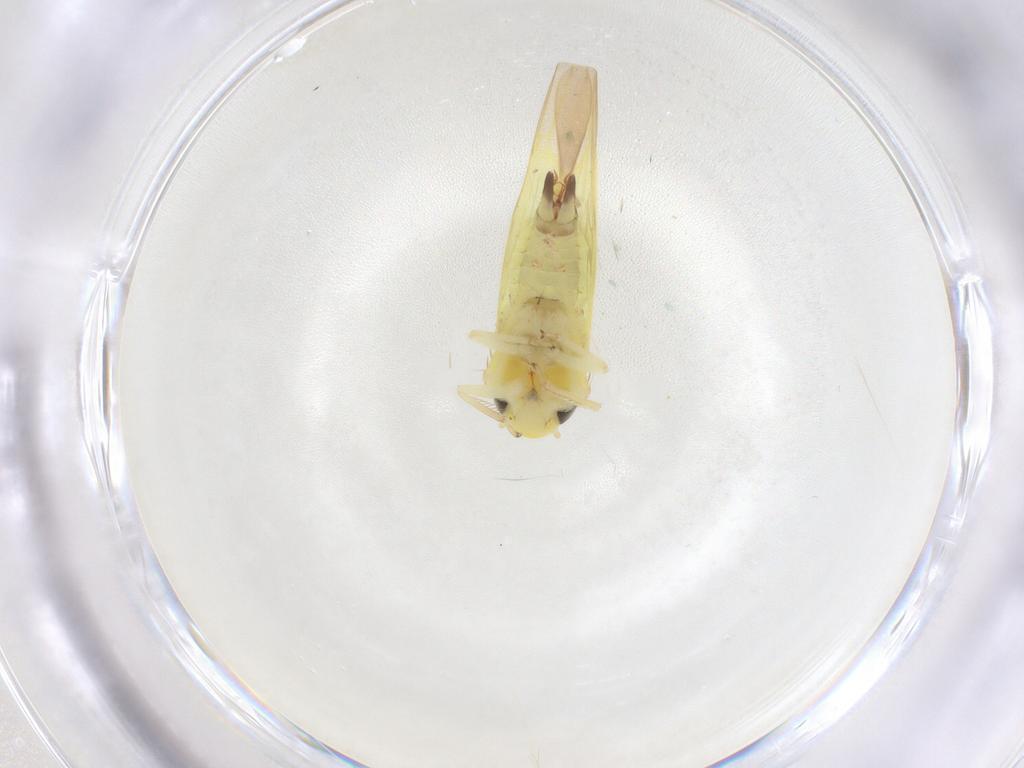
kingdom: Animalia
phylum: Arthropoda
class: Insecta
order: Hemiptera
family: Cicadellidae
